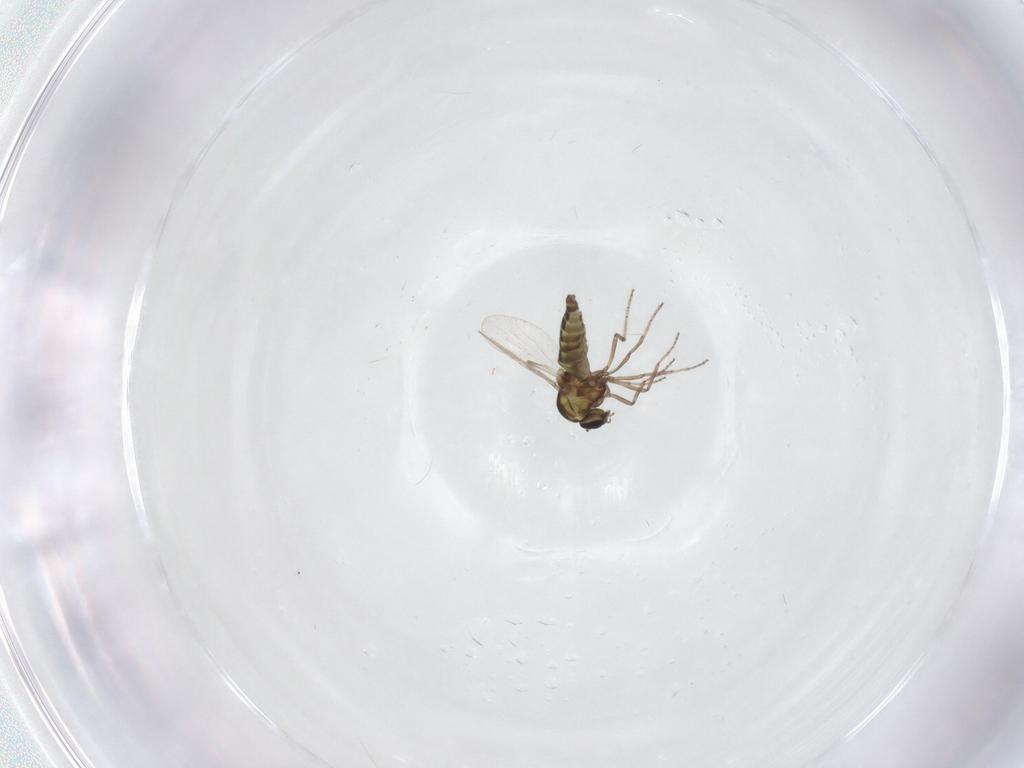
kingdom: Animalia
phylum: Arthropoda
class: Insecta
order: Diptera
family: Ceratopogonidae
